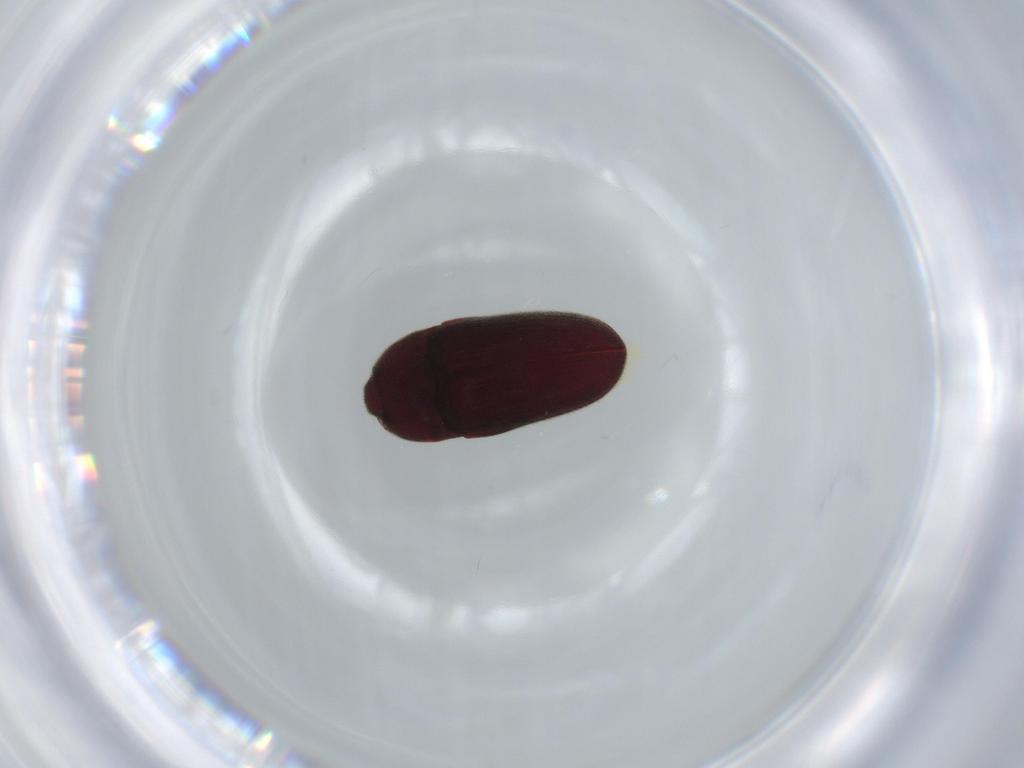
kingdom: Animalia
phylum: Arthropoda
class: Insecta
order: Coleoptera
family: Throscidae
